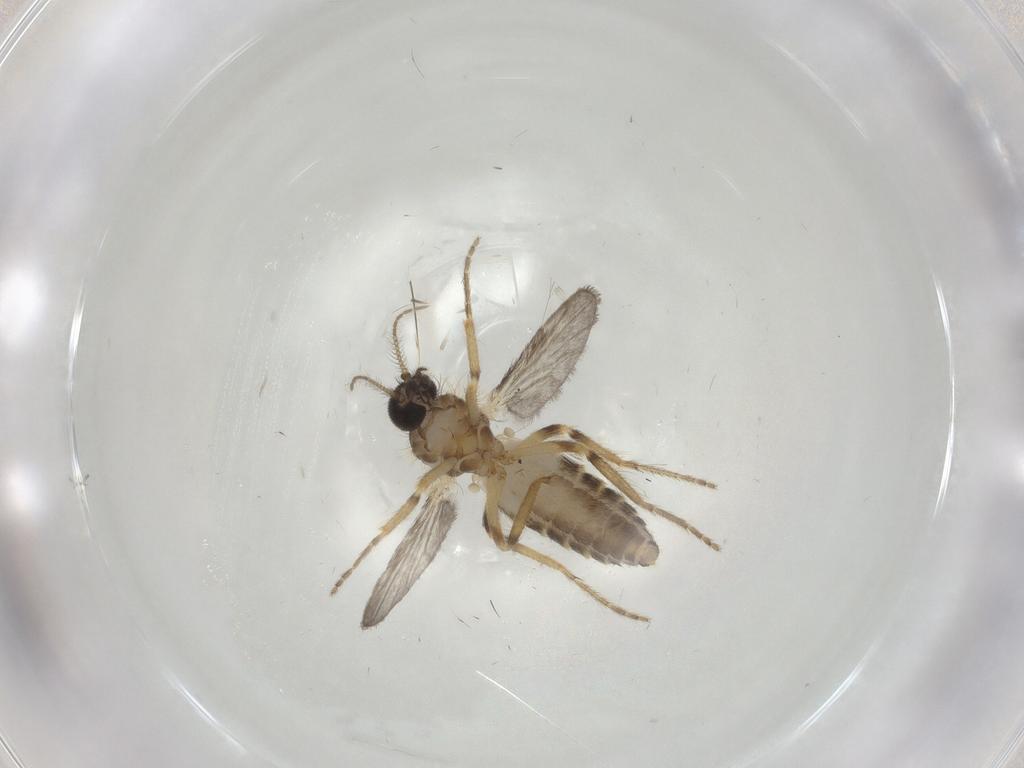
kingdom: Animalia
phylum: Arthropoda
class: Insecta
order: Diptera
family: Ceratopogonidae
